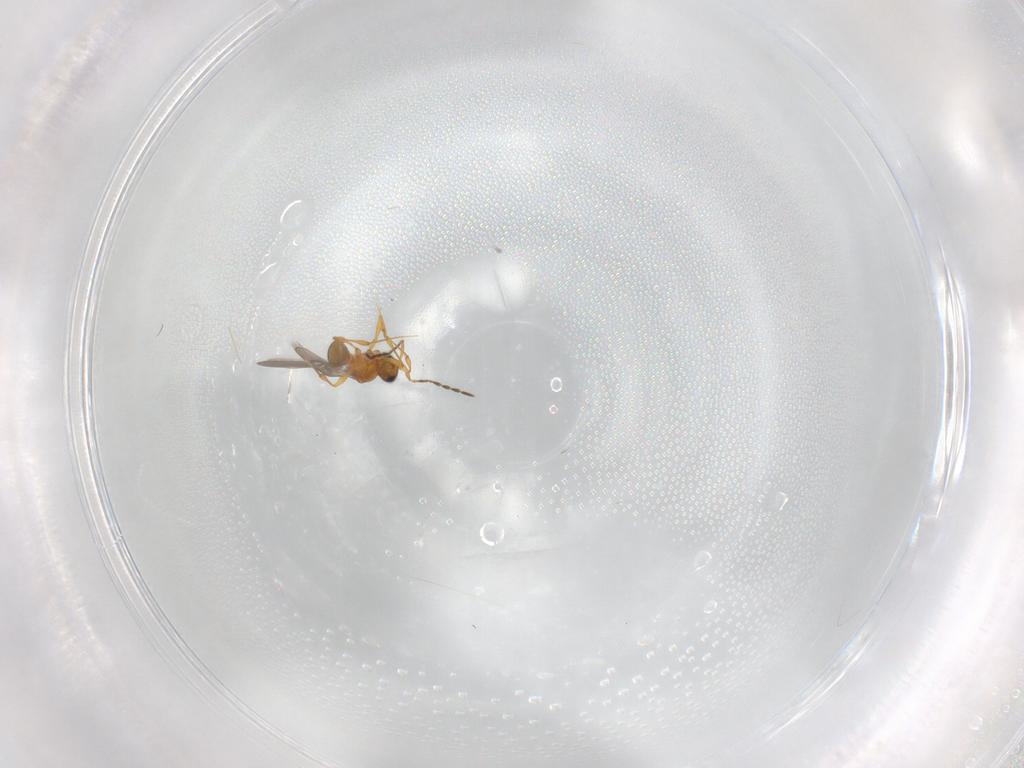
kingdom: Animalia
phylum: Arthropoda
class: Insecta
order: Hymenoptera
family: Platygastridae
